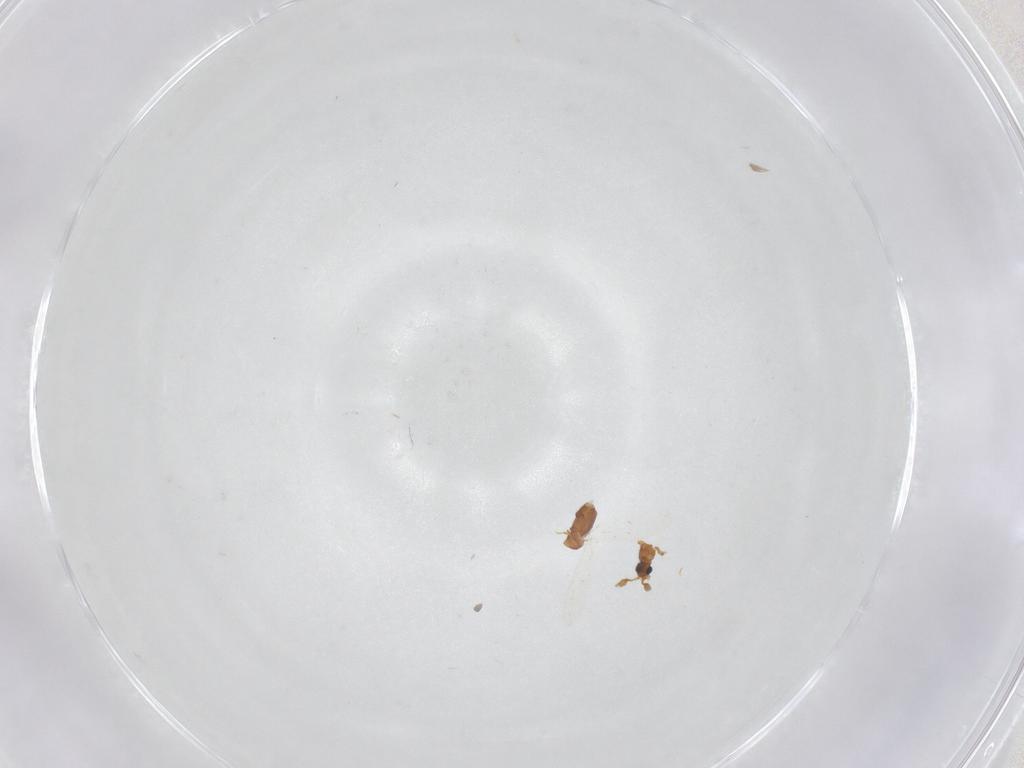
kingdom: Animalia
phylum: Arthropoda
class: Insecta
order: Coleoptera
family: Staphylinidae
